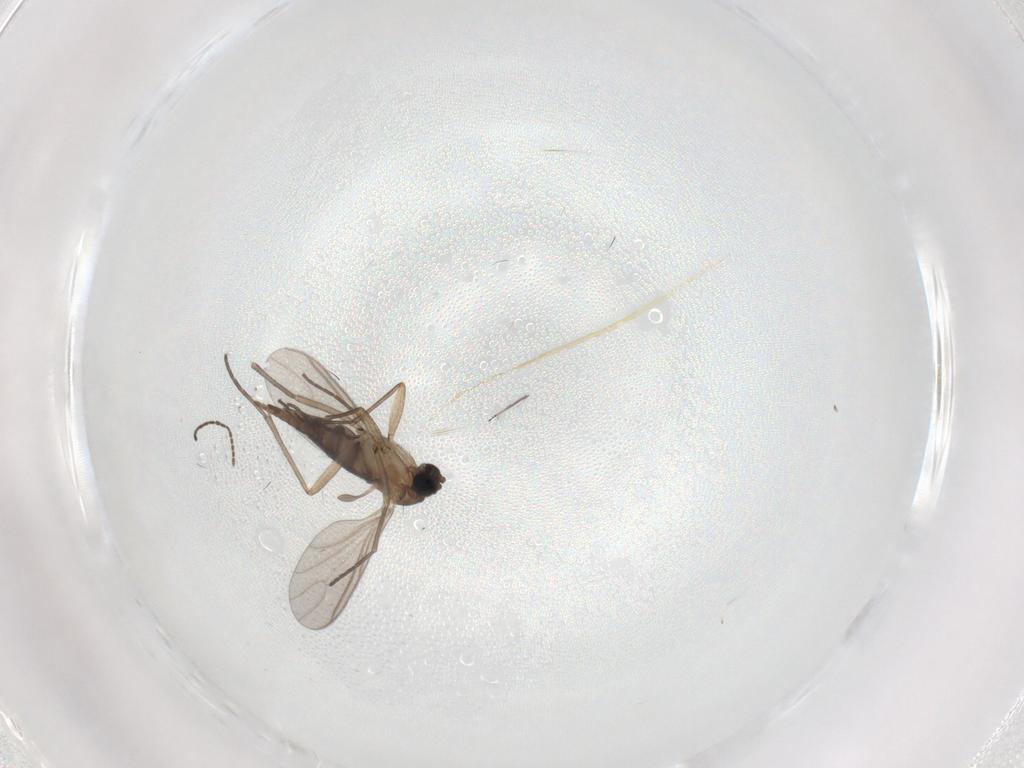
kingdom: Animalia
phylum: Arthropoda
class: Insecta
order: Diptera
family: Sciaridae
